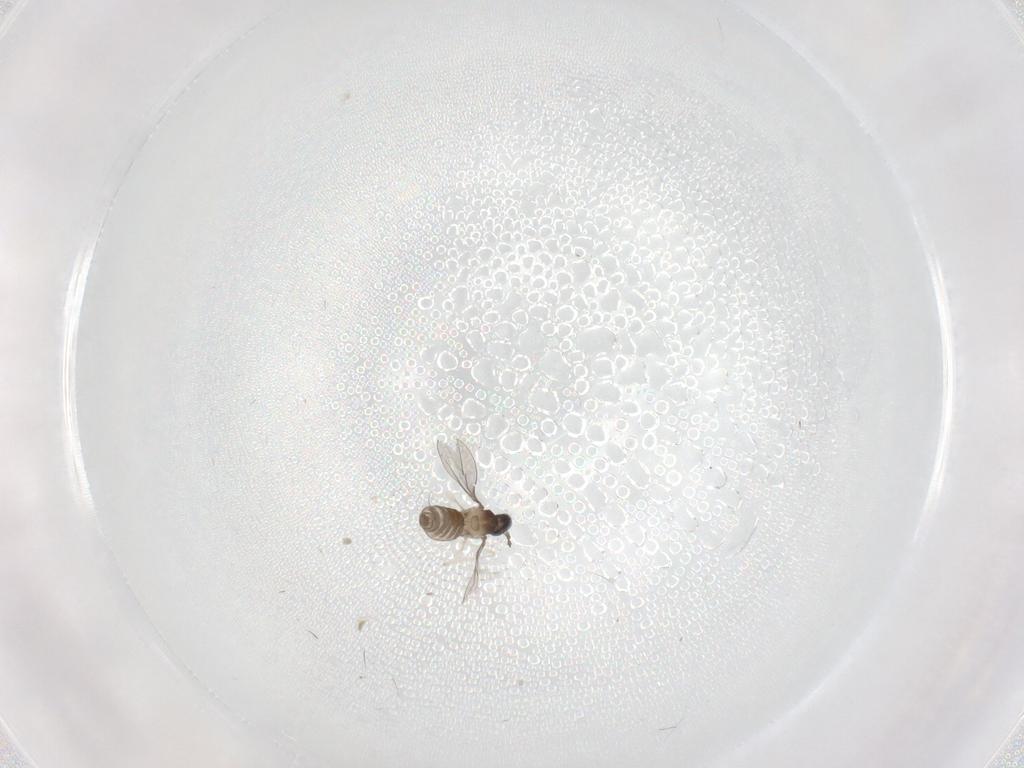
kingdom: Animalia
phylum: Arthropoda
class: Insecta
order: Diptera
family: Cecidomyiidae
